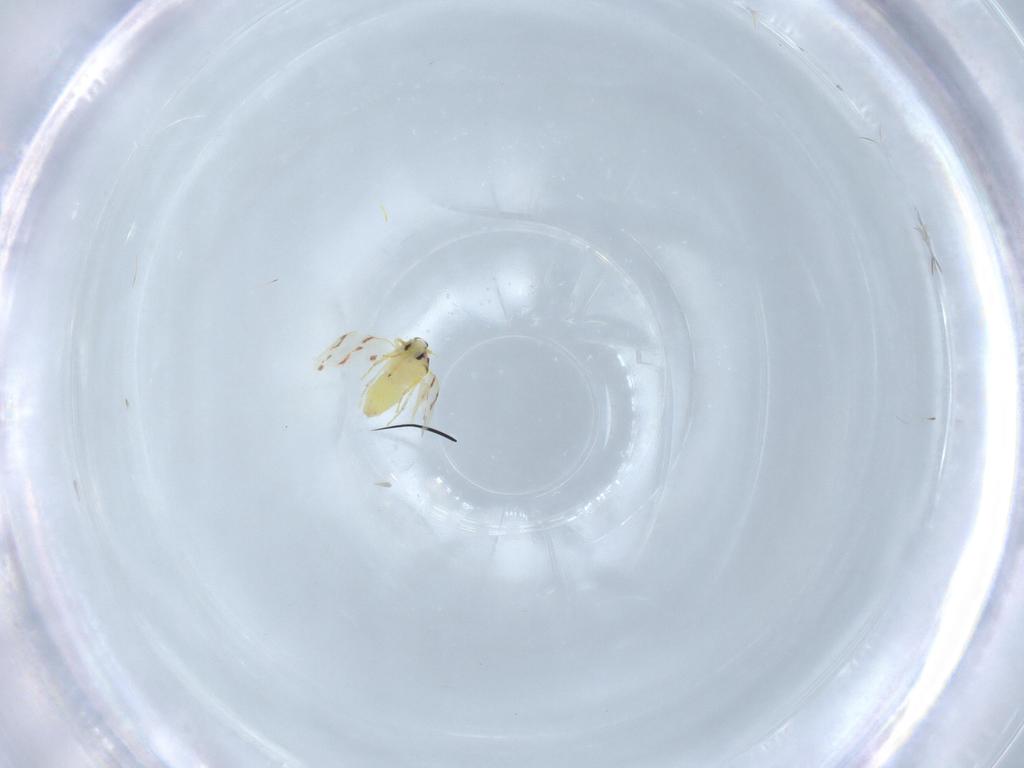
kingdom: Animalia
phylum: Arthropoda
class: Insecta
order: Hemiptera
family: Aleyrodidae
